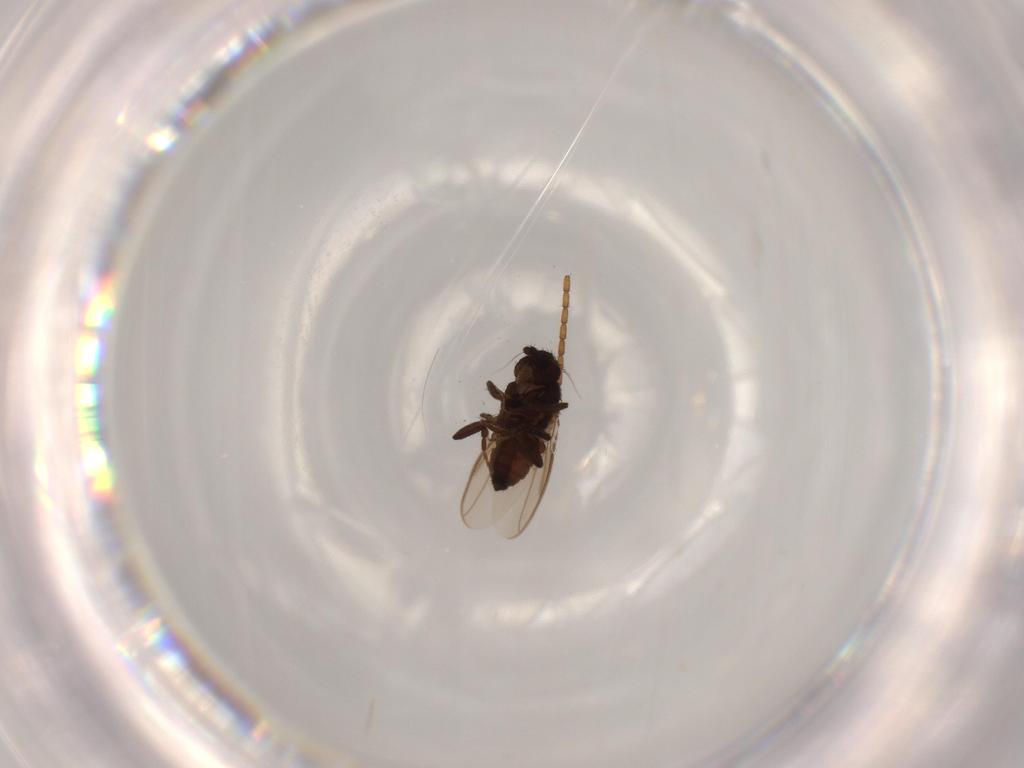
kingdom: Animalia
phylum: Arthropoda
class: Insecta
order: Diptera
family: Sphaeroceridae
